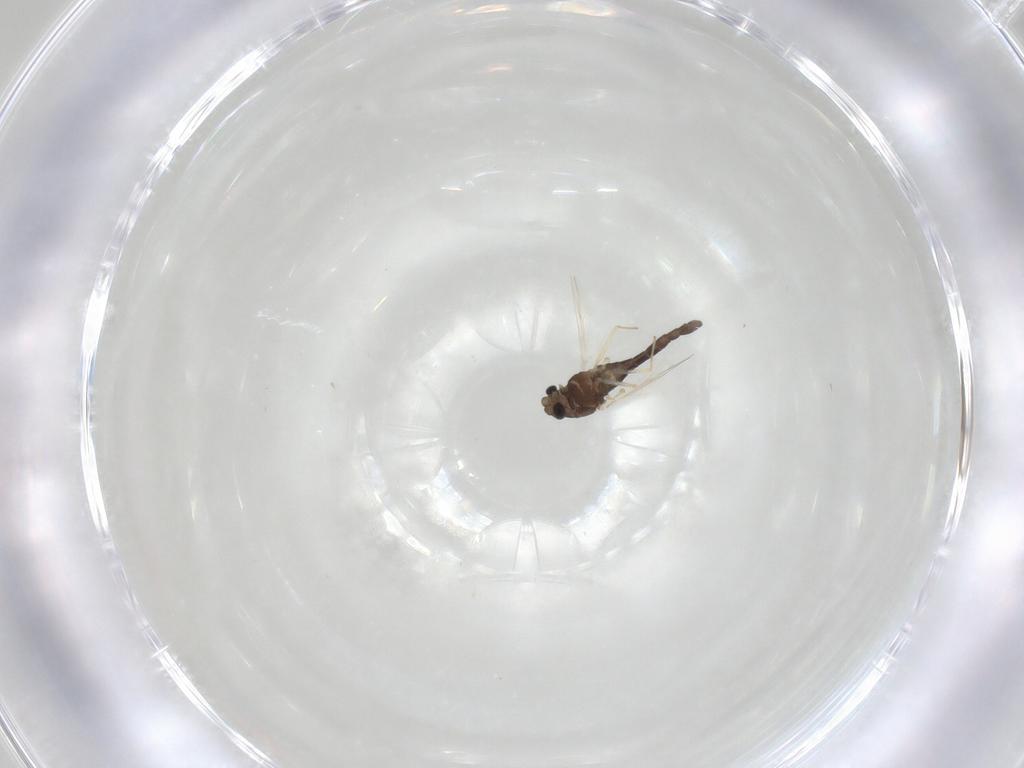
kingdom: Animalia
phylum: Arthropoda
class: Insecta
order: Diptera
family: Chironomidae
